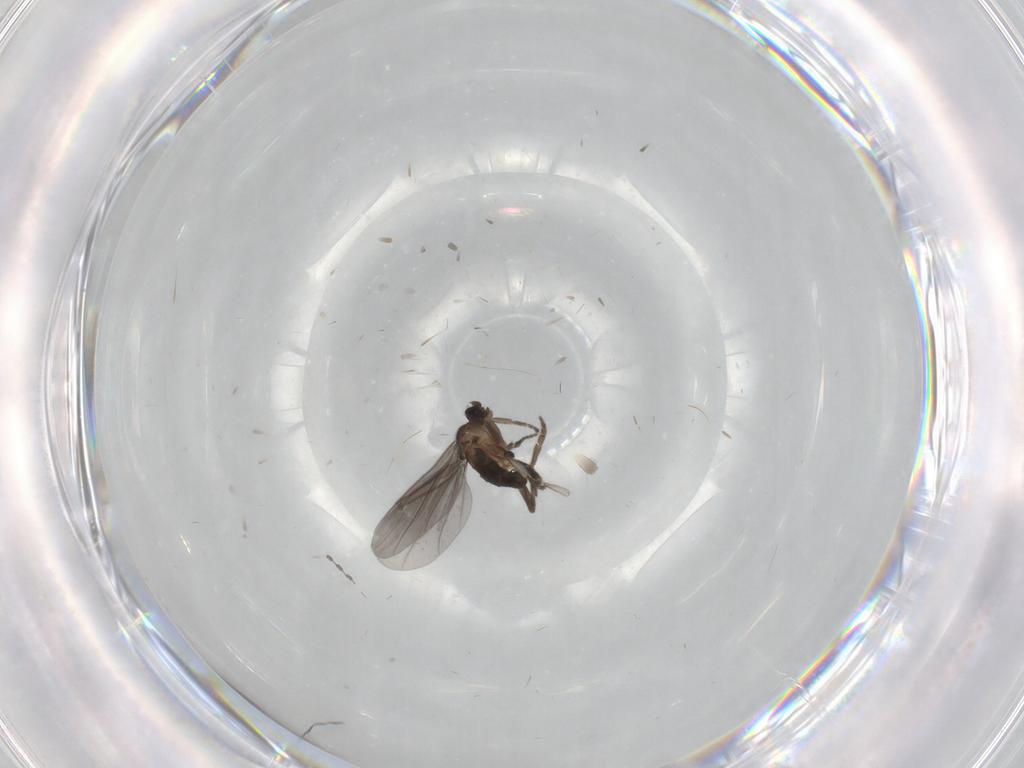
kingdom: Animalia
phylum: Arthropoda
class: Insecta
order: Diptera
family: Phoridae
